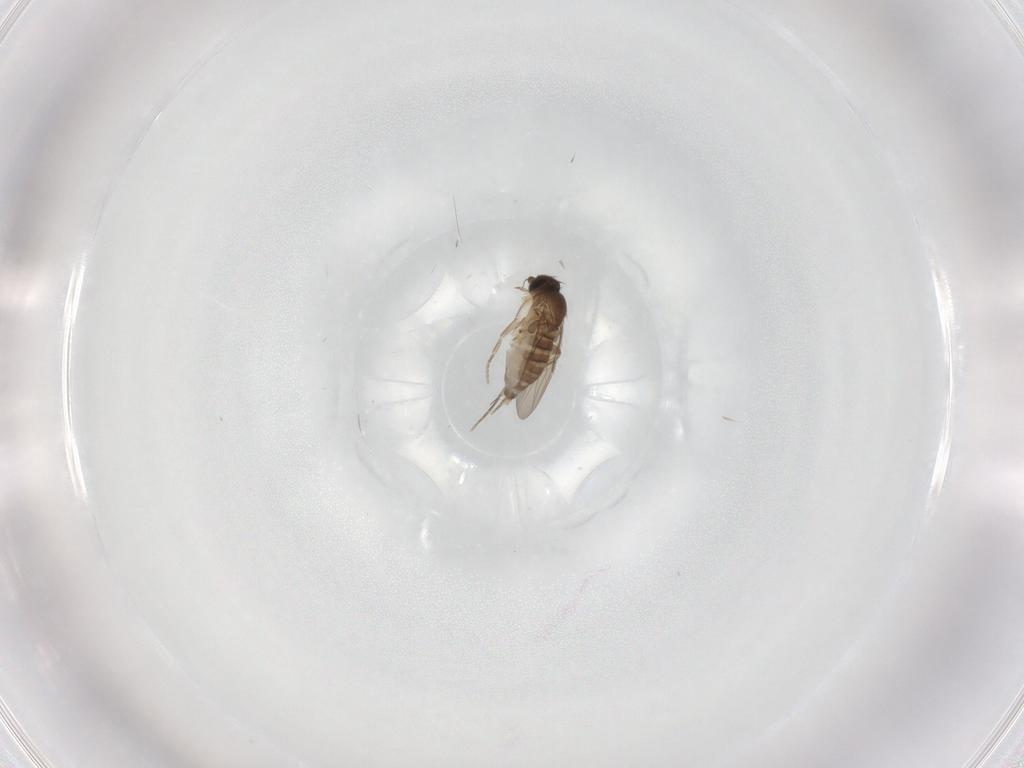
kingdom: Animalia
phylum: Arthropoda
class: Insecta
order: Diptera
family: Phoridae
